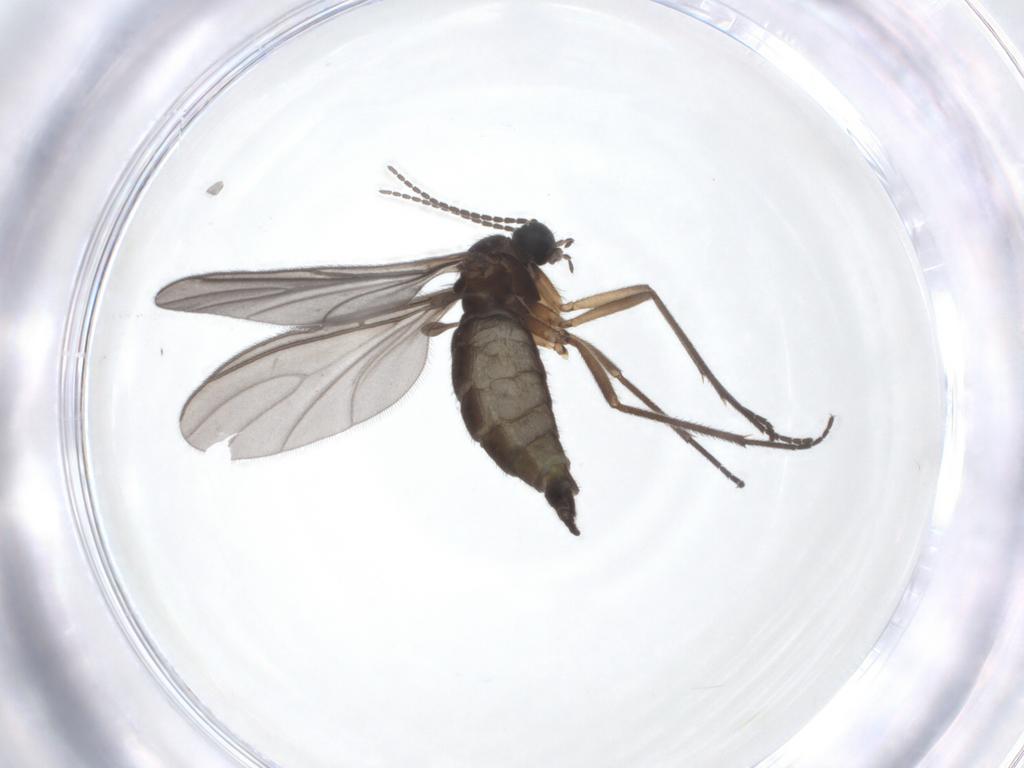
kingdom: Animalia
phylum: Arthropoda
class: Insecta
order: Diptera
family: Sciaridae
